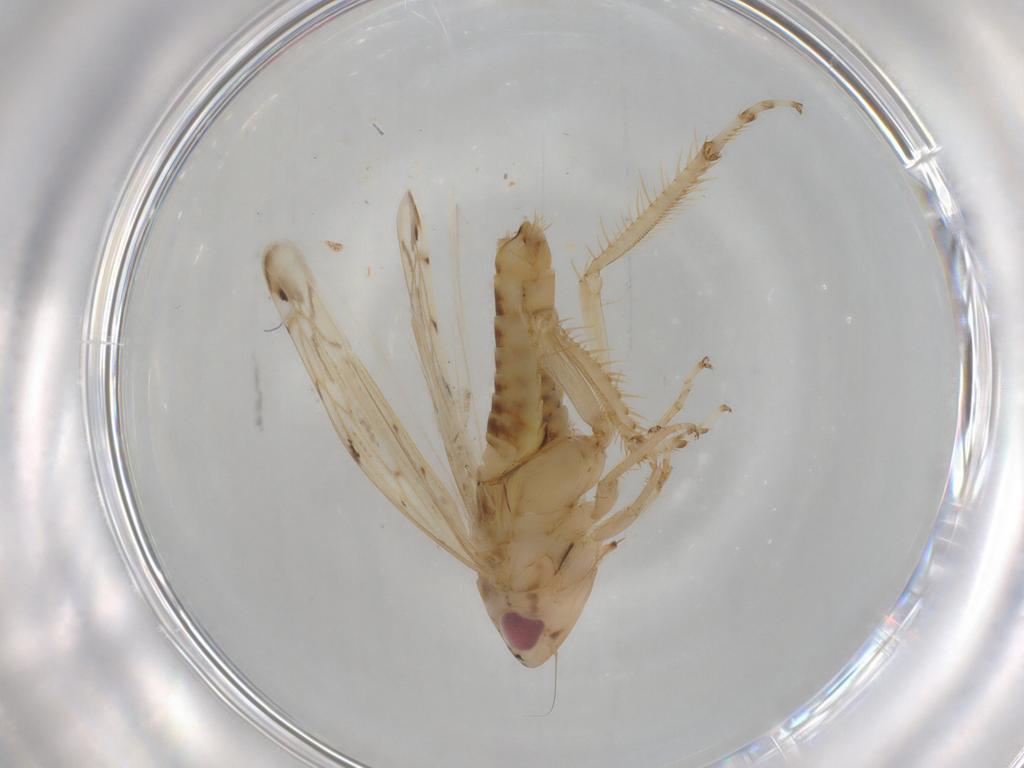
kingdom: Animalia
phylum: Arthropoda
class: Insecta
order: Hemiptera
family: Cicadellidae
